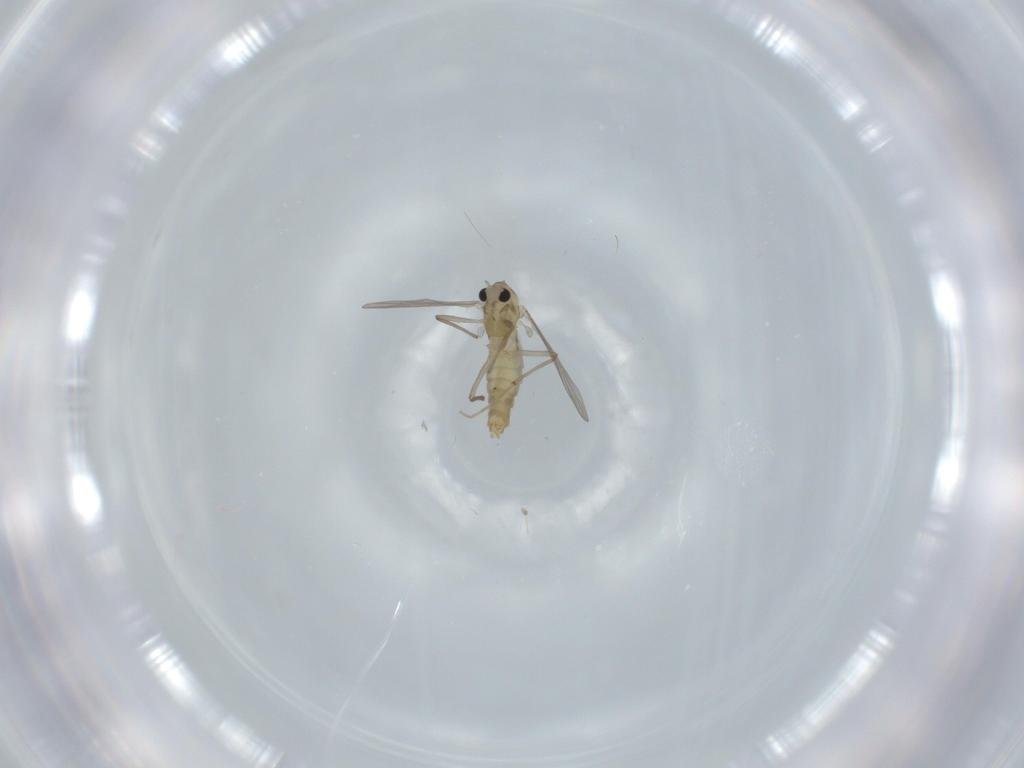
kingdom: Animalia
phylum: Arthropoda
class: Insecta
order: Diptera
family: Chironomidae
